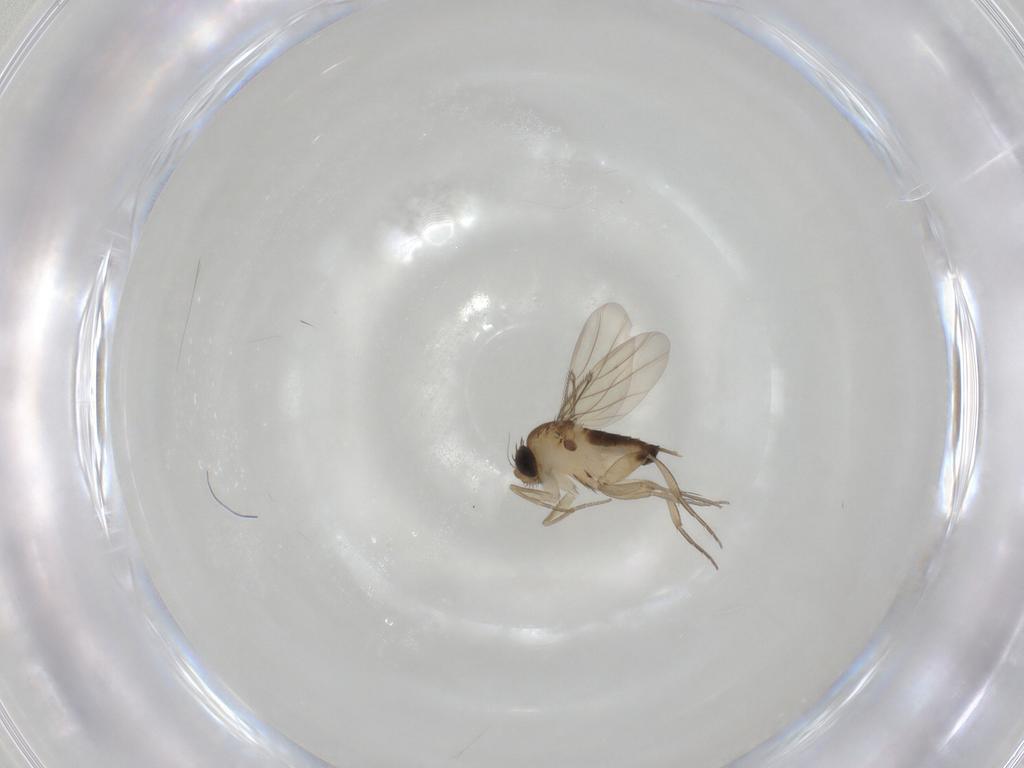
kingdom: Animalia
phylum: Arthropoda
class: Insecta
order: Diptera
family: Phoridae
